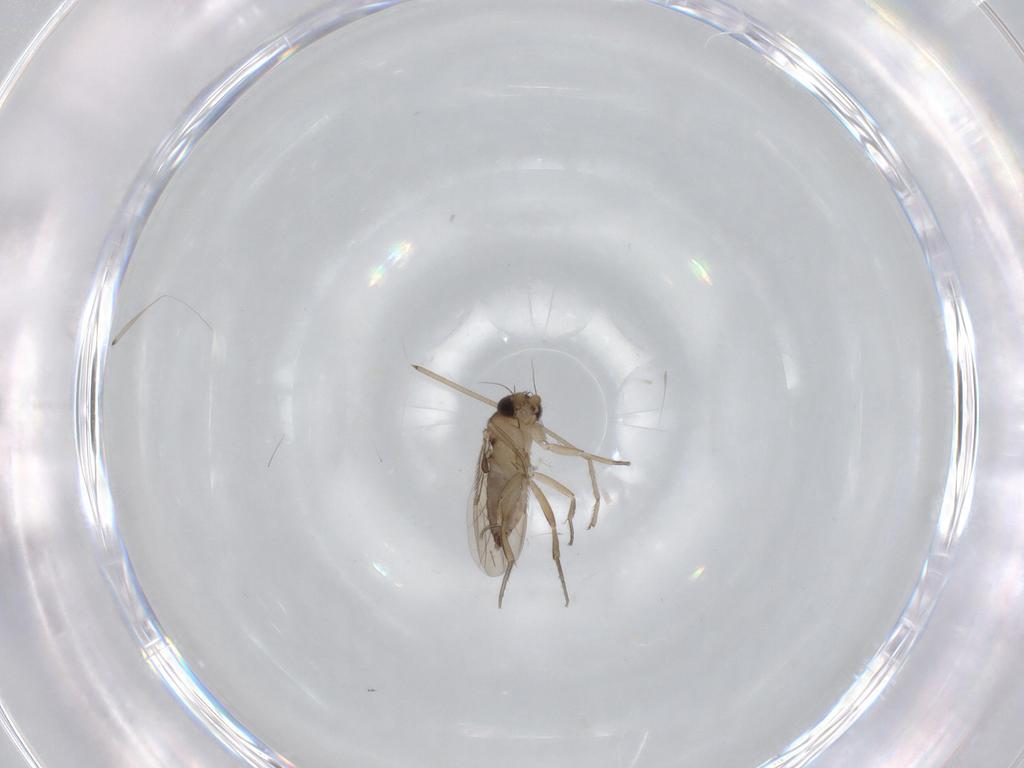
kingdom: Animalia
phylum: Arthropoda
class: Insecta
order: Diptera
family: Phoridae
